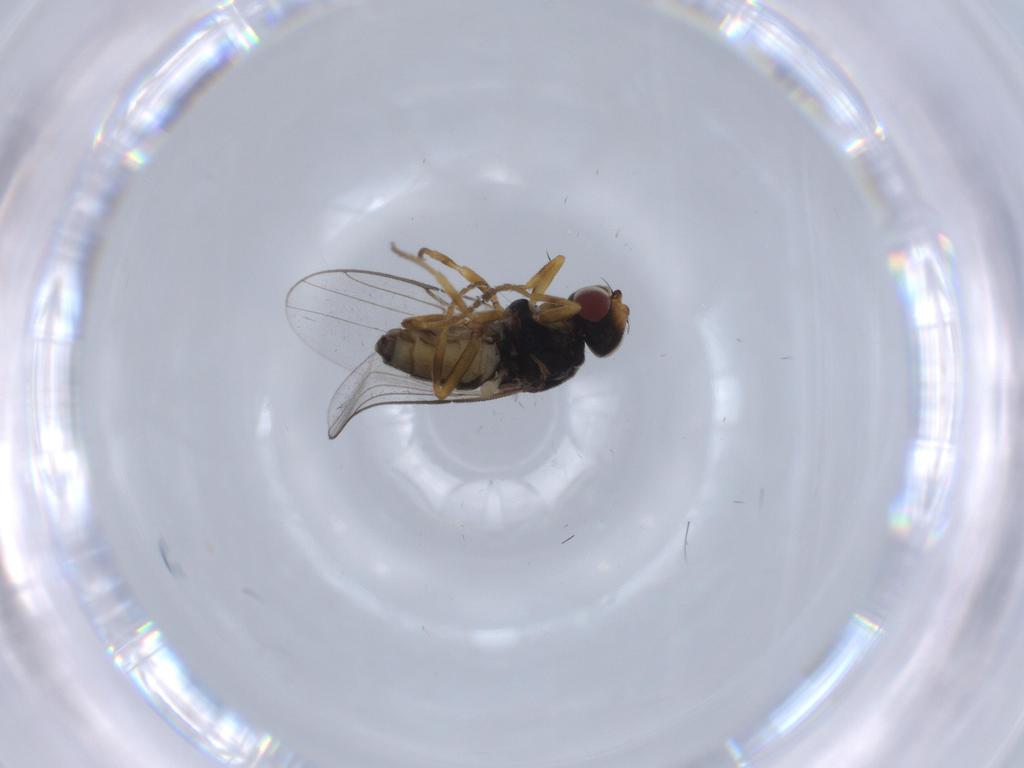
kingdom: Animalia
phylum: Arthropoda
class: Insecta
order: Diptera
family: Chloropidae
